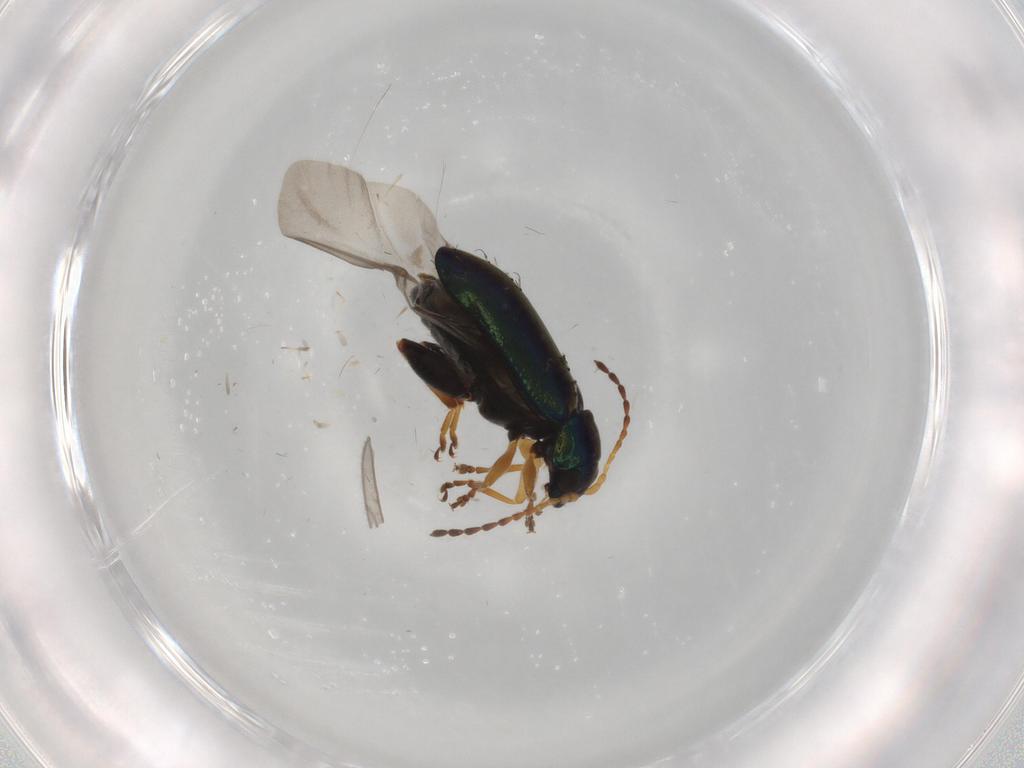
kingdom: Animalia
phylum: Arthropoda
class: Insecta
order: Coleoptera
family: Chrysomelidae
